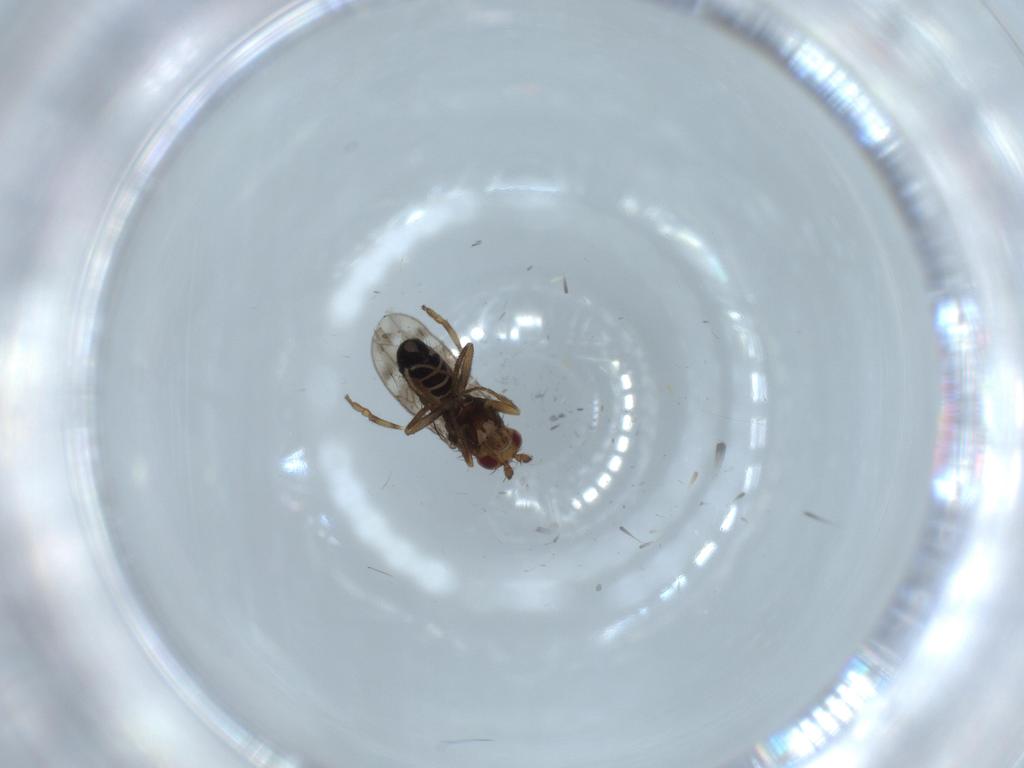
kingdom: Animalia
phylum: Arthropoda
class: Insecta
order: Diptera
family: Sphaeroceridae
